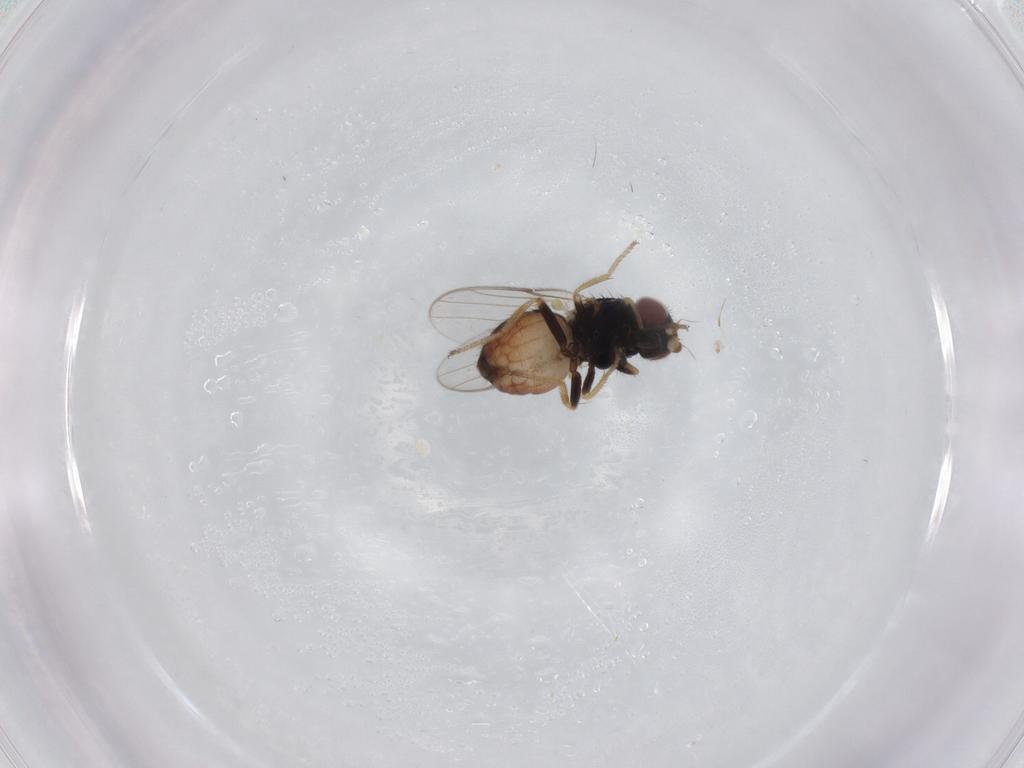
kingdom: Animalia
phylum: Arthropoda
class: Insecta
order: Diptera
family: Chloropidae
